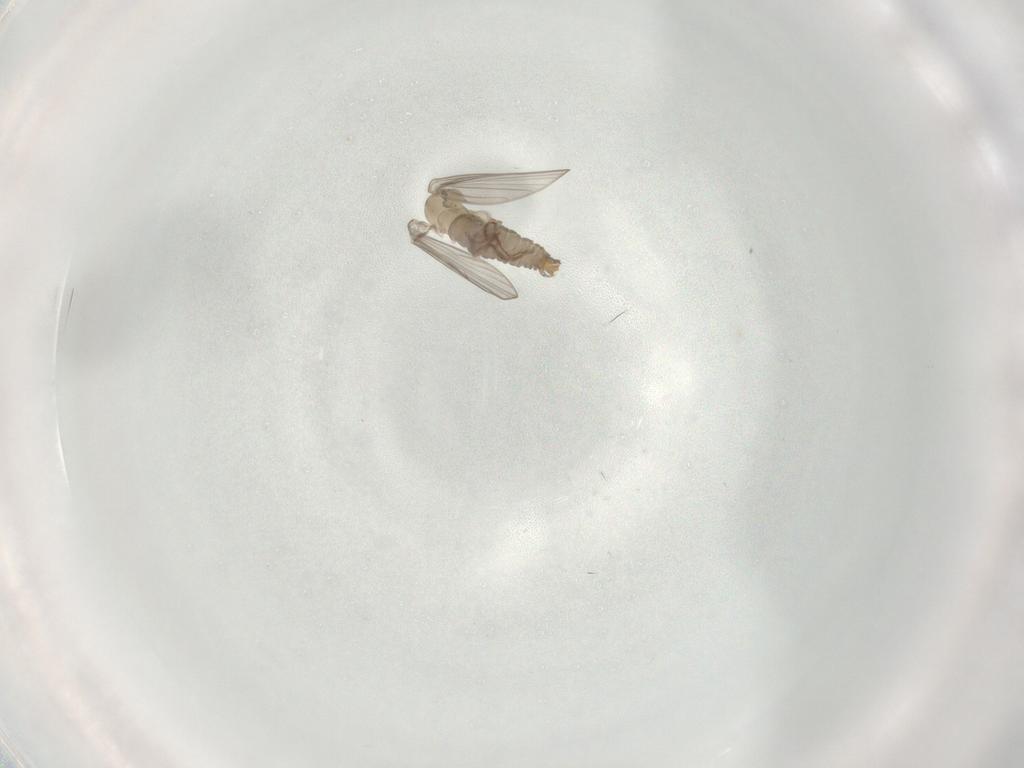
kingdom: Animalia
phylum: Arthropoda
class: Insecta
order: Diptera
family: Psychodidae
